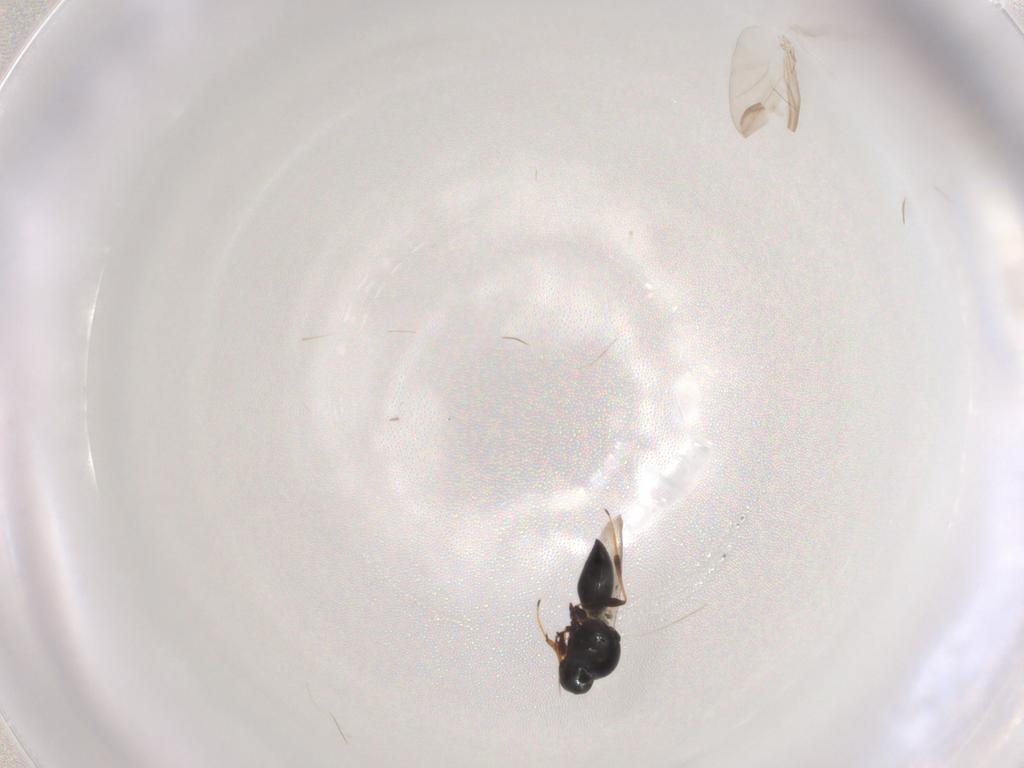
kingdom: Animalia
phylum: Arthropoda
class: Insecta
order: Hymenoptera
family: Platygastridae
